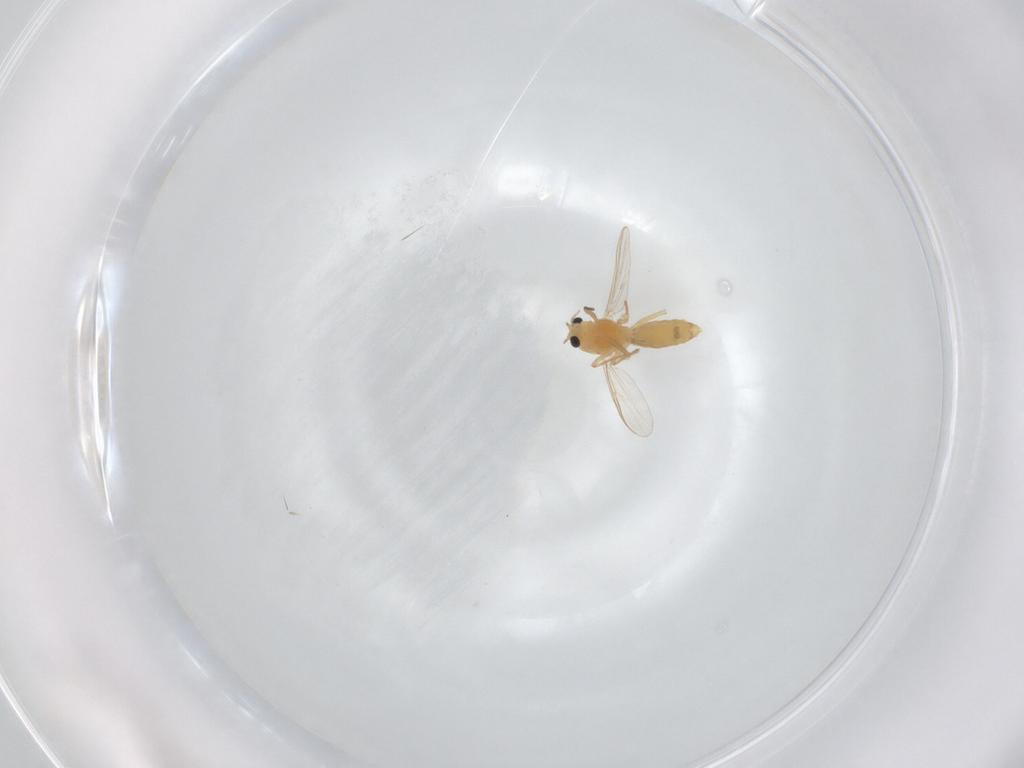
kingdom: Animalia
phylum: Arthropoda
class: Insecta
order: Diptera
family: Chironomidae
